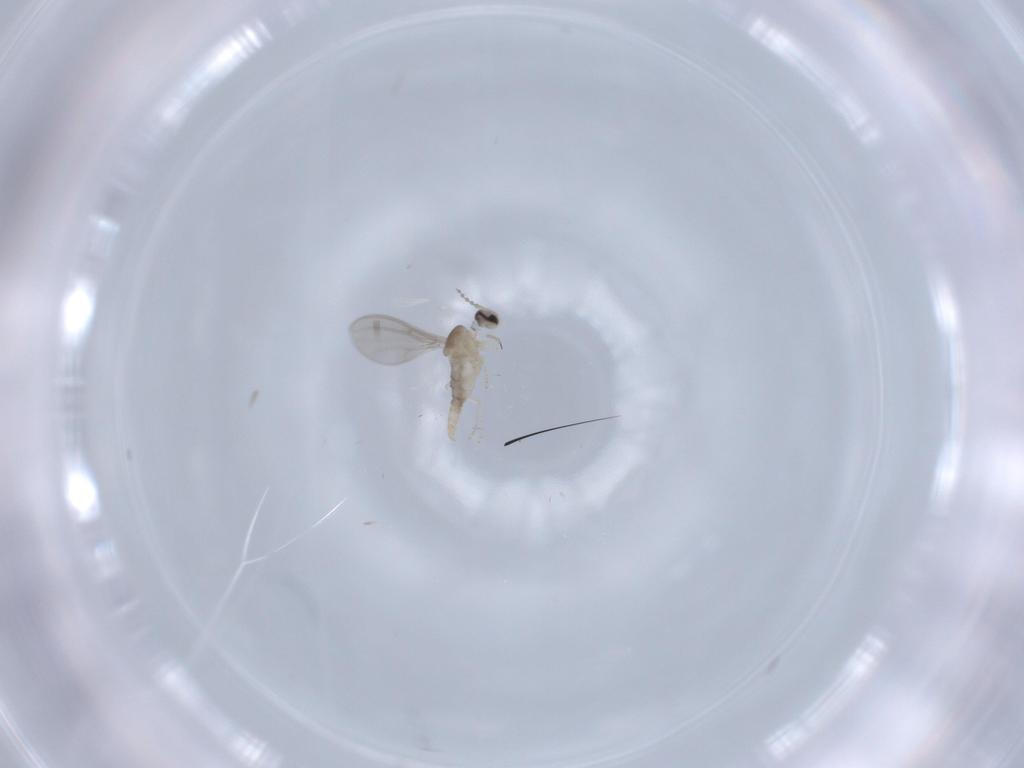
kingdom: Animalia
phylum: Arthropoda
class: Insecta
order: Diptera
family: Cecidomyiidae
